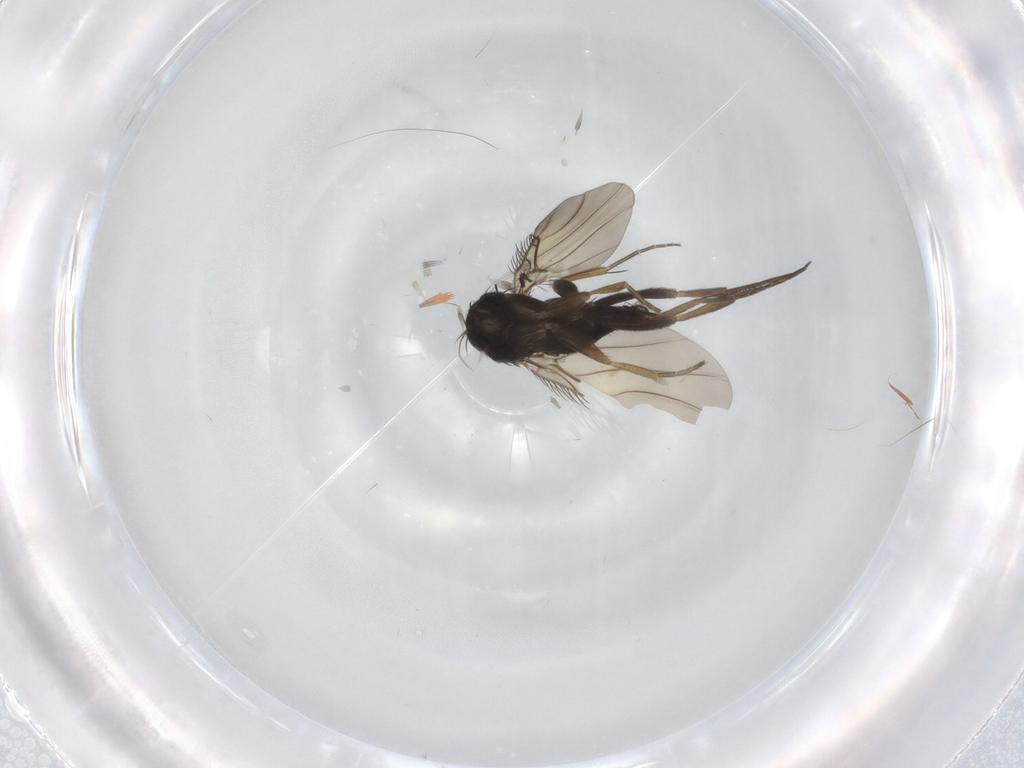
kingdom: Animalia
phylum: Arthropoda
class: Insecta
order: Diptera
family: Phoridae
